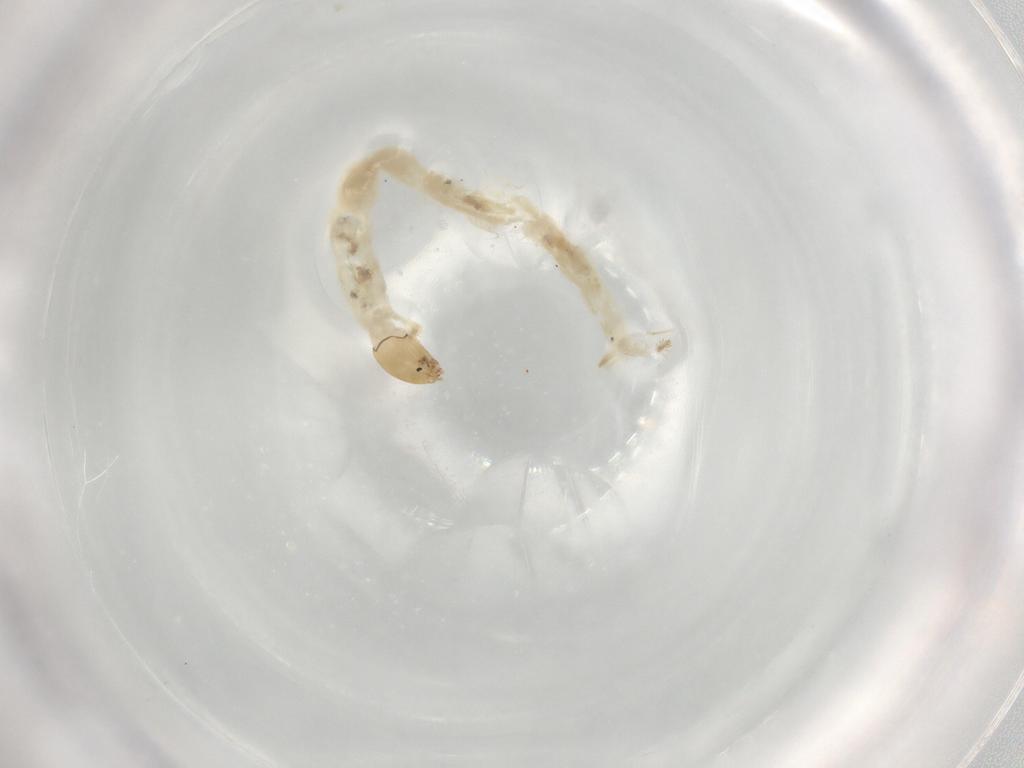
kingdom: Animalia
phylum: Arthropoda
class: Insecta
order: Diptera
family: Chironomidae
